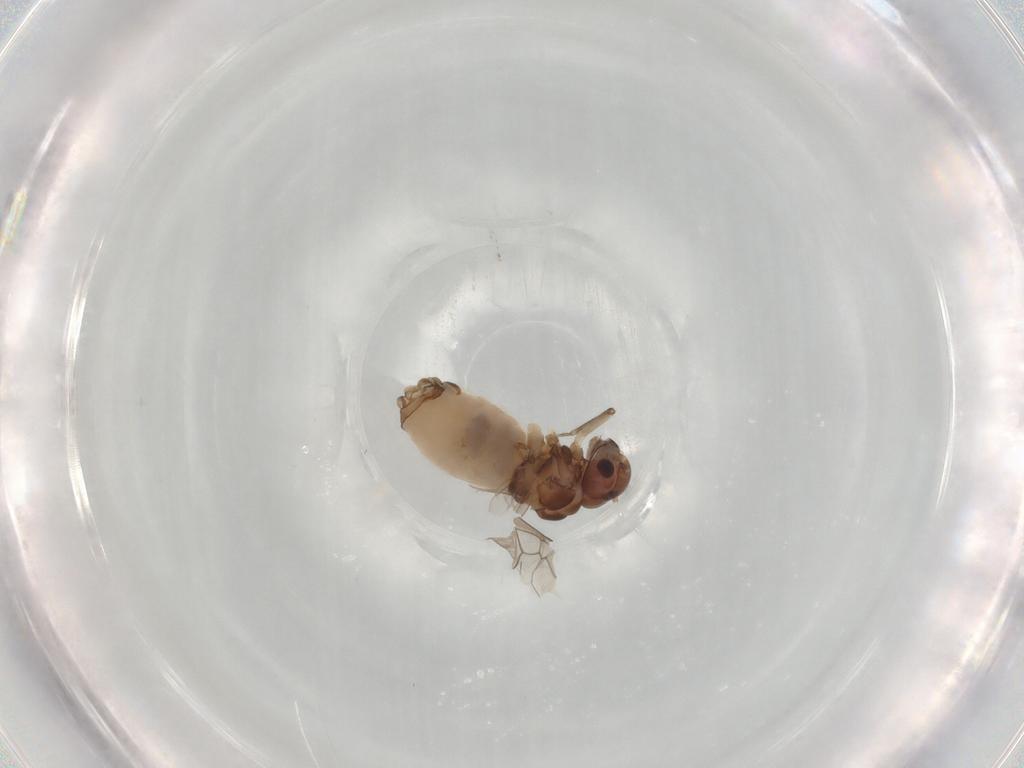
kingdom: Animalia
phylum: Arthropoda
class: Insecta
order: Psocodea
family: Peripsocidae
